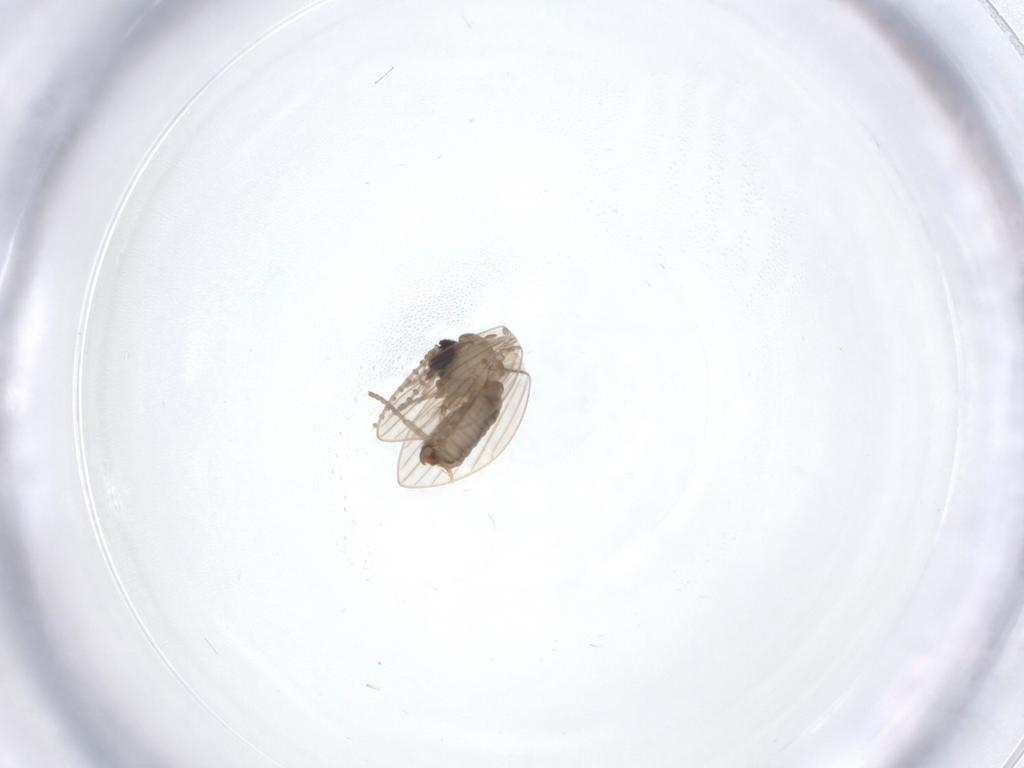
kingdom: Animalia
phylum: Arthropoda
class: Insecta
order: Diptera
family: Psychodidae
